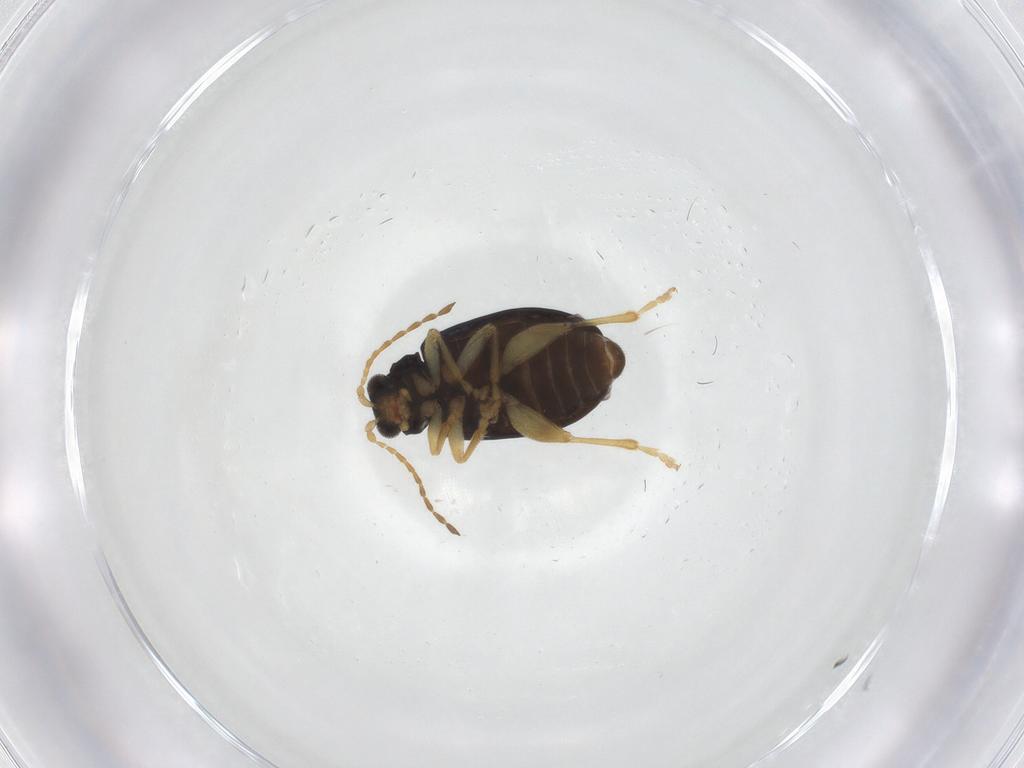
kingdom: Animalia
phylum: Arthropoda
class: Insecta
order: Coleoptera
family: Chrysomelidae
